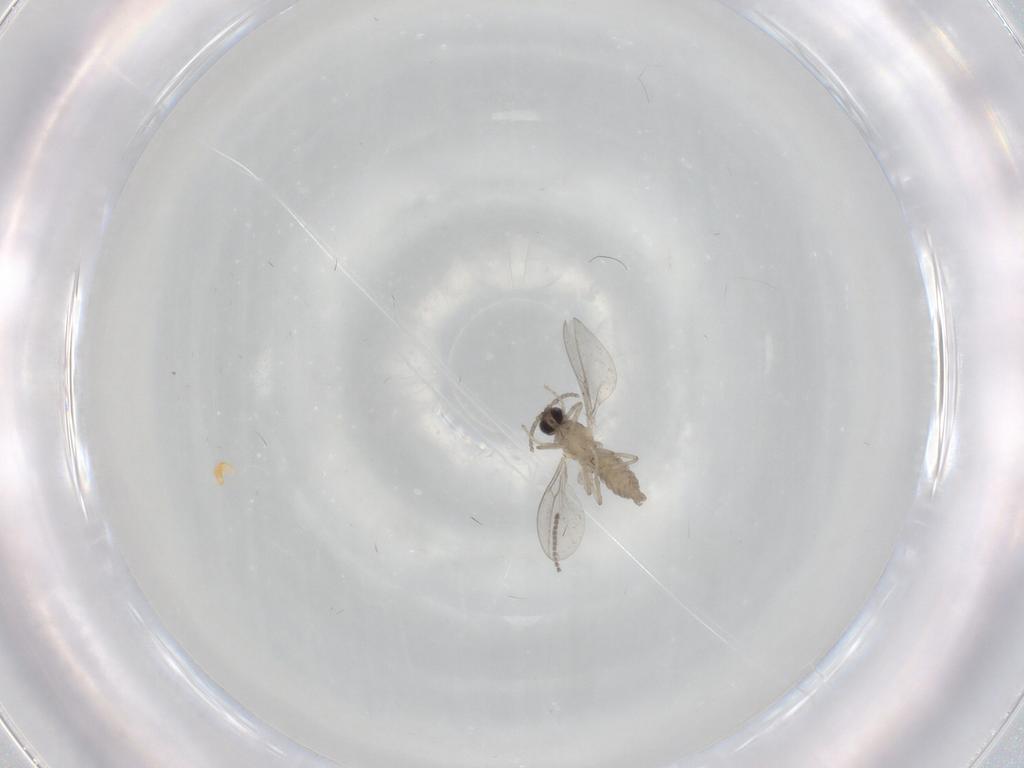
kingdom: Animalia
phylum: Arthropoda
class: Insecta
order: Diptera
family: Cecidomyiidae
